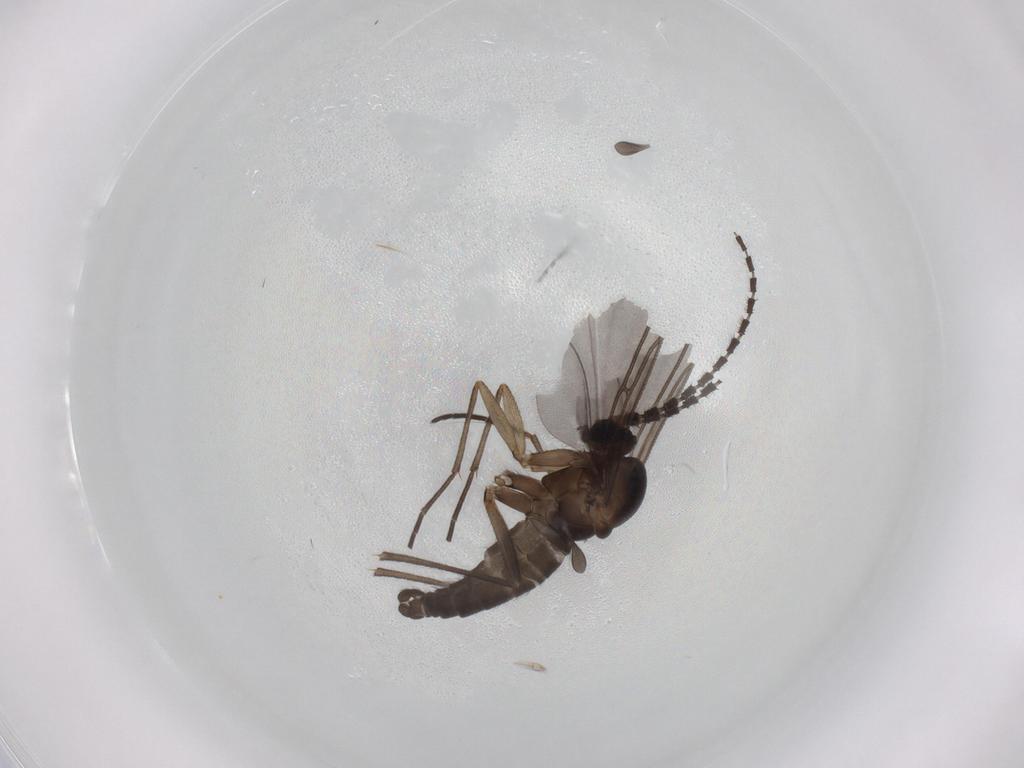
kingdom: Animalia
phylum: Arthropoda
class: Insecta
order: Diptera
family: Sciaridae
